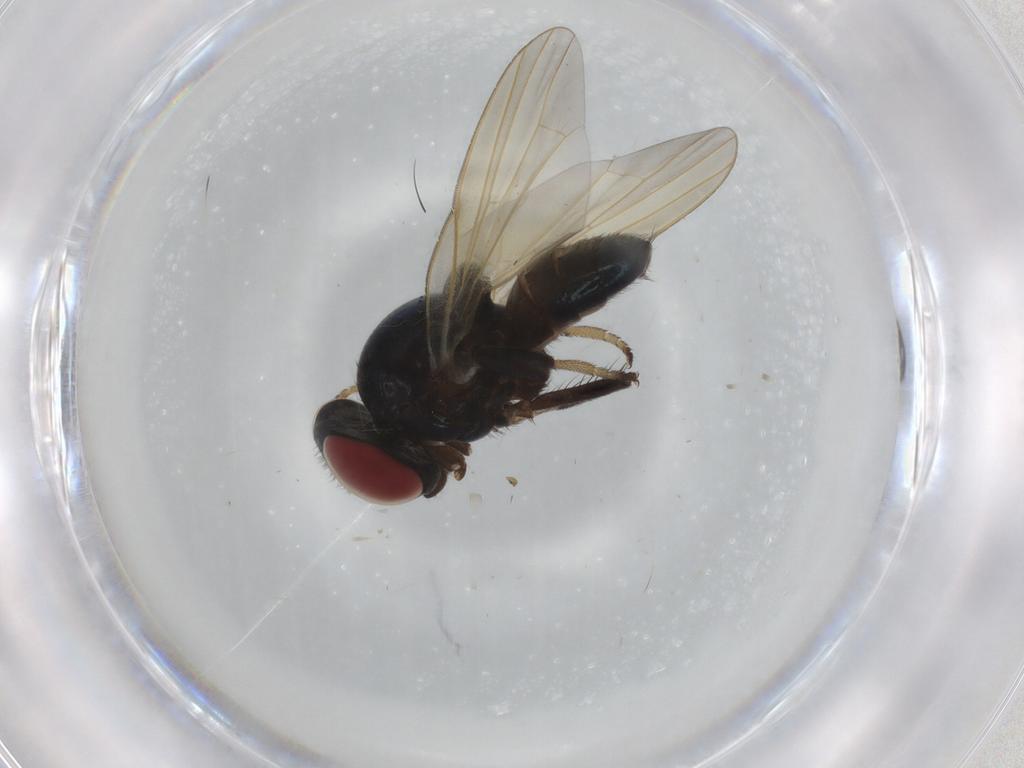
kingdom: Animalia
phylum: Arthropoda
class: Insecta
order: Diptera
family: Lonchaeidae
